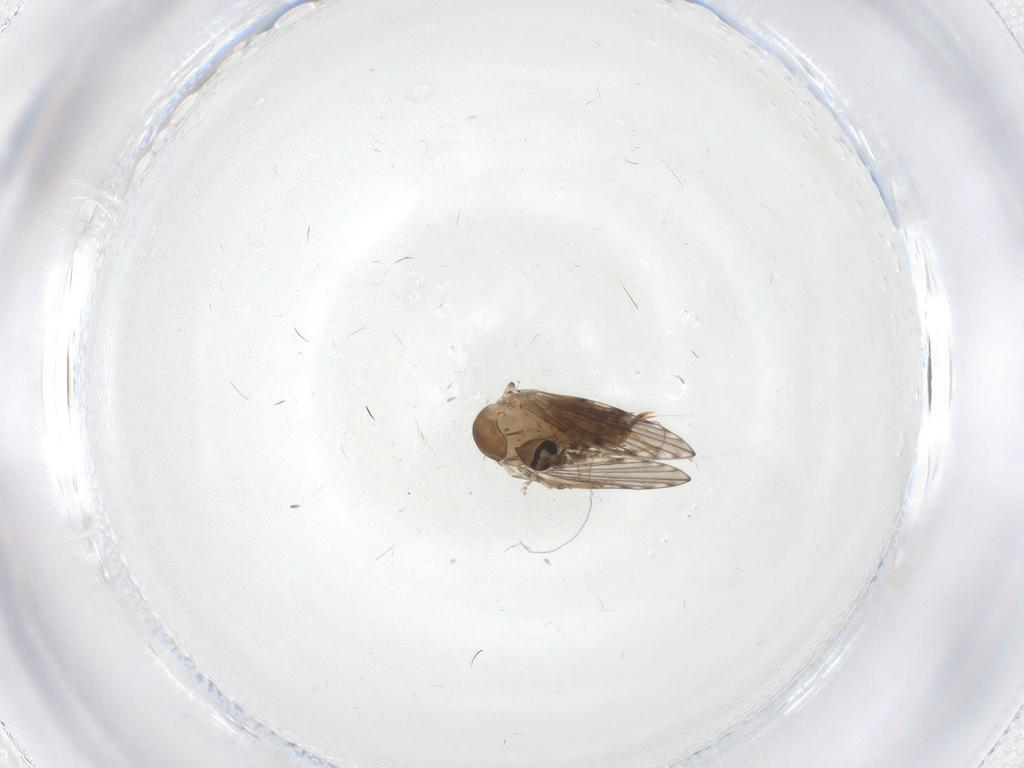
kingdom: Animalia
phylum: Arthropoda
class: Insecta
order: Diptera
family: Psychodidae
